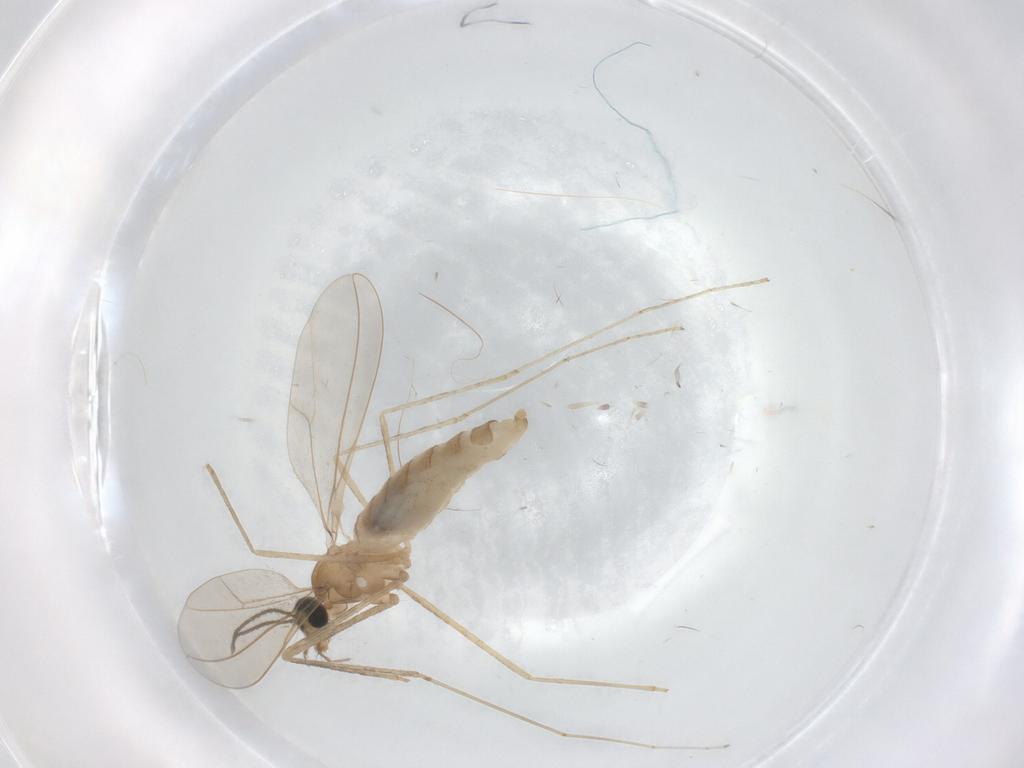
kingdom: Animalia
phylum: Arthropoda
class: Insecta
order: Diptera
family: Cecidomyiidae
